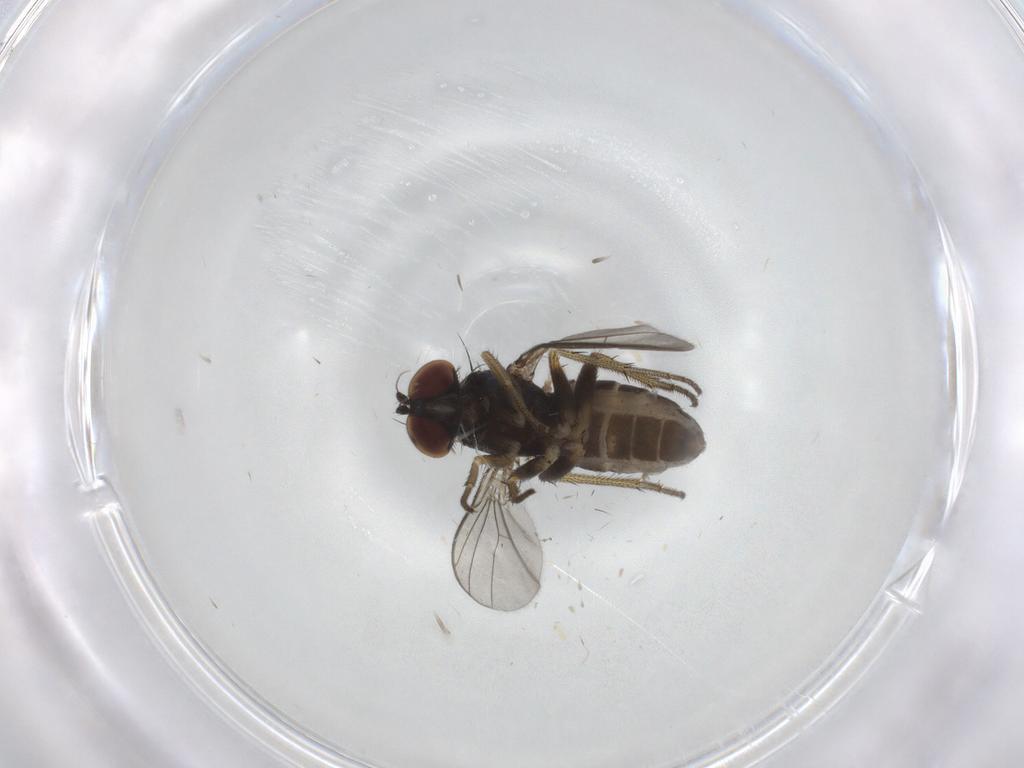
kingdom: Animalia
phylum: Arthropoda
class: Insecta
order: Diptera
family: Dolichopodidae
